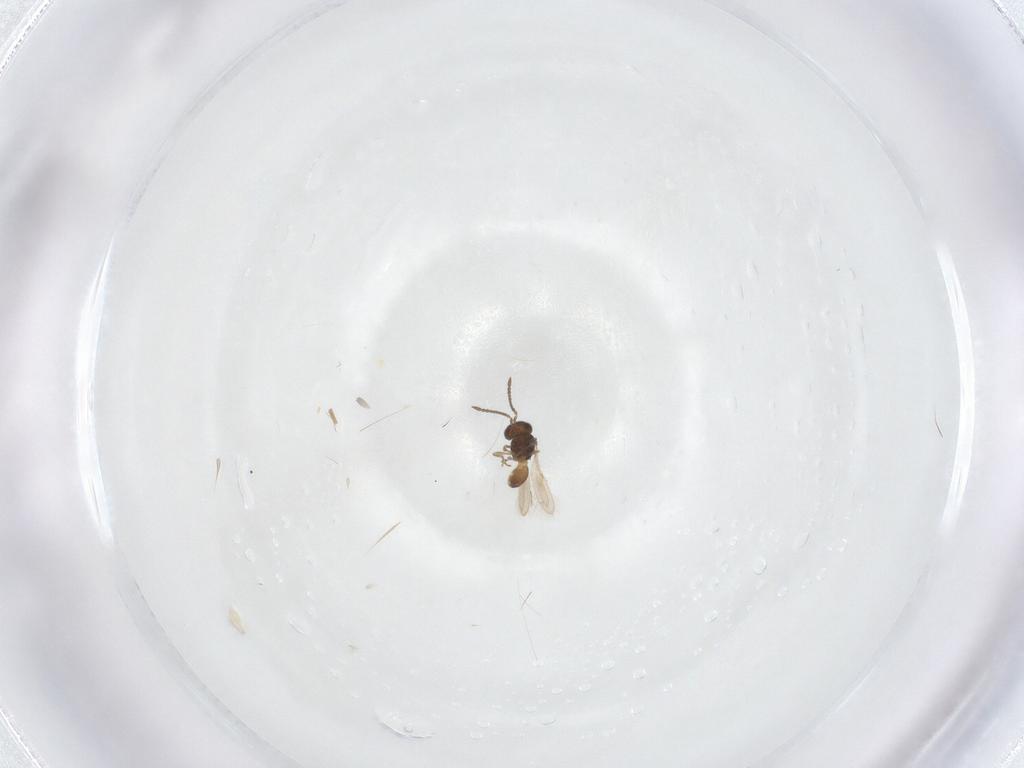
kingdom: Animalia
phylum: Arthropoda
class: Insecta
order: Hymenoptera
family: Scelionidae
